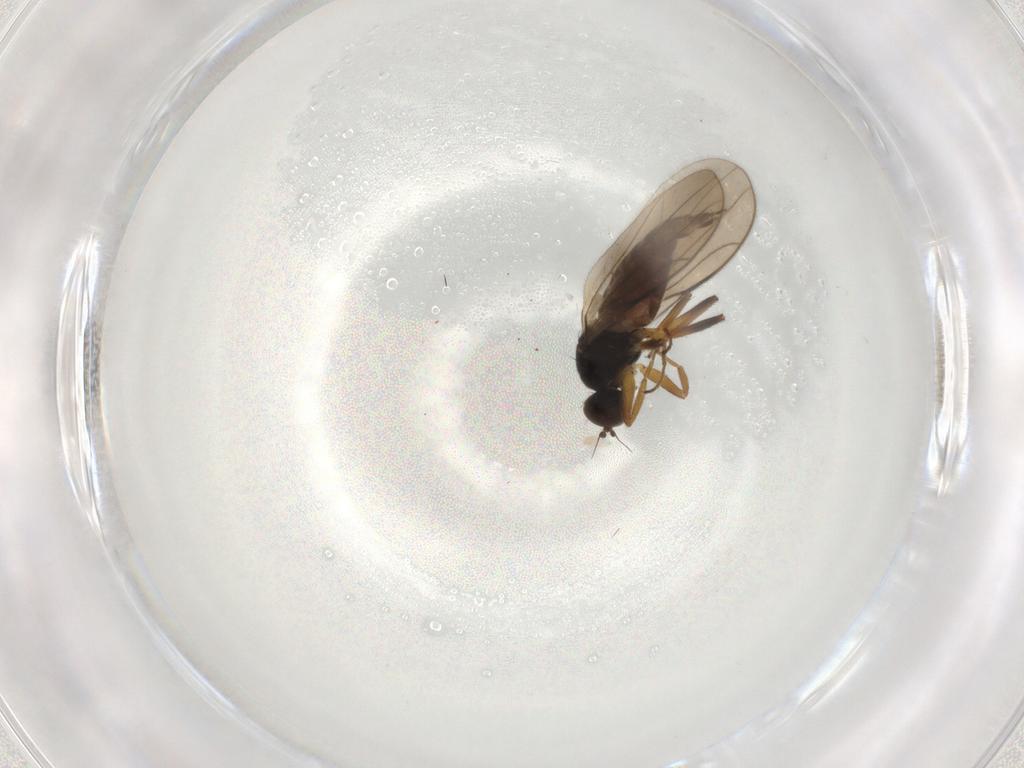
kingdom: Animalia
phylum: Arthropoda
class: Insecta
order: Diptera
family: Hybotidae
